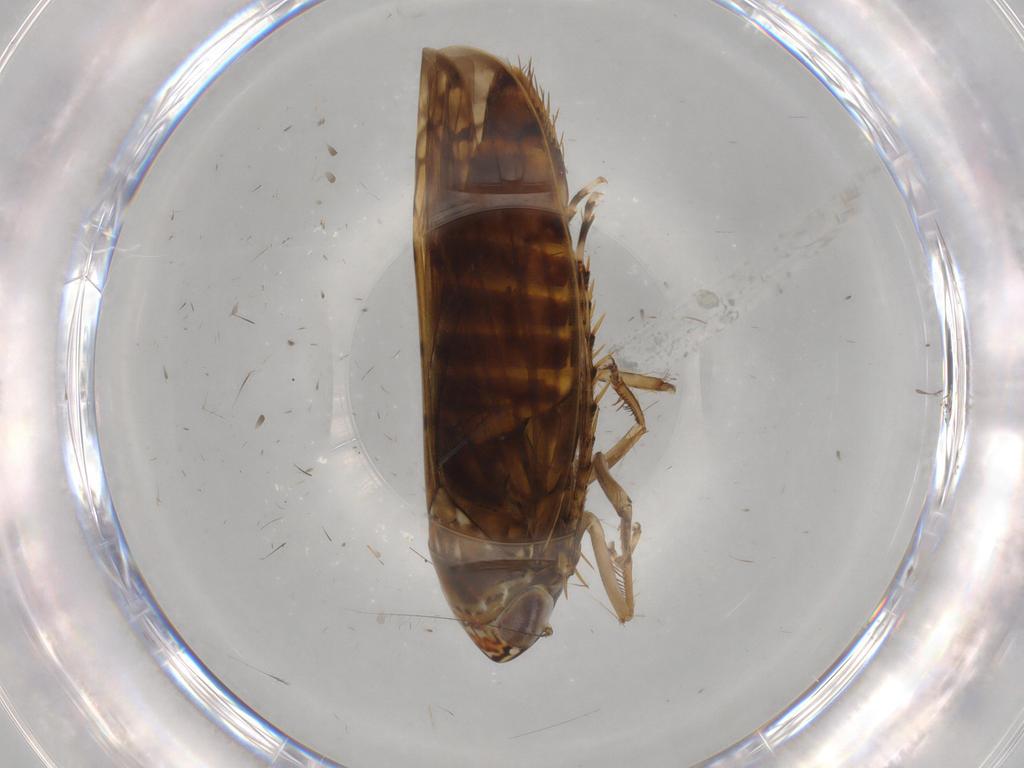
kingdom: Animalia
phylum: Arthropoda
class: Insecta
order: Hemiptera
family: Cicadellidae
